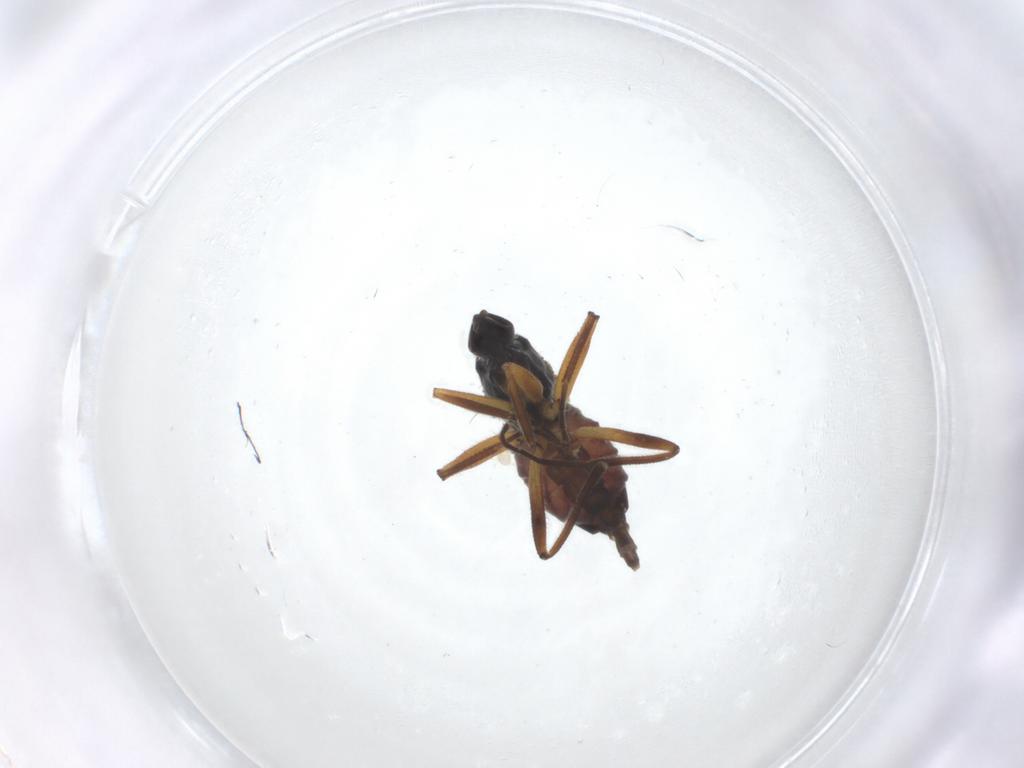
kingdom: Animalia
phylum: Arthropoda
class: Insecta
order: Diptera
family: Hybotidae
